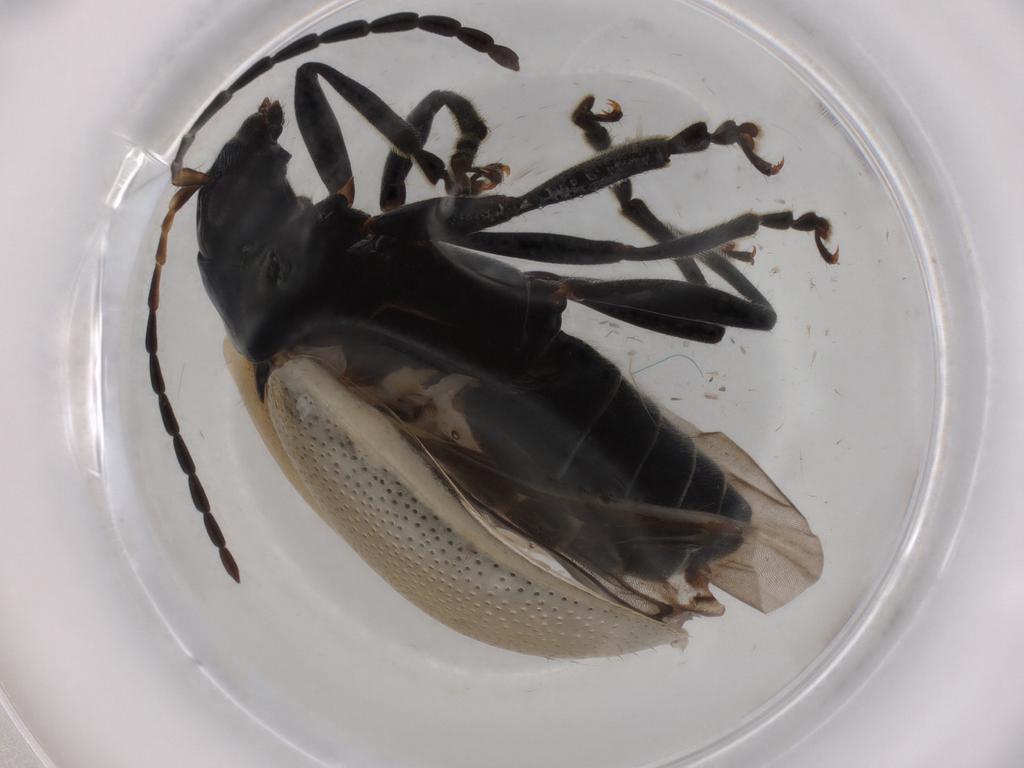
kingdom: Animalia
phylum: Arthropoda
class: Insecta
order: Coleoptera
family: Chrysomelidae
